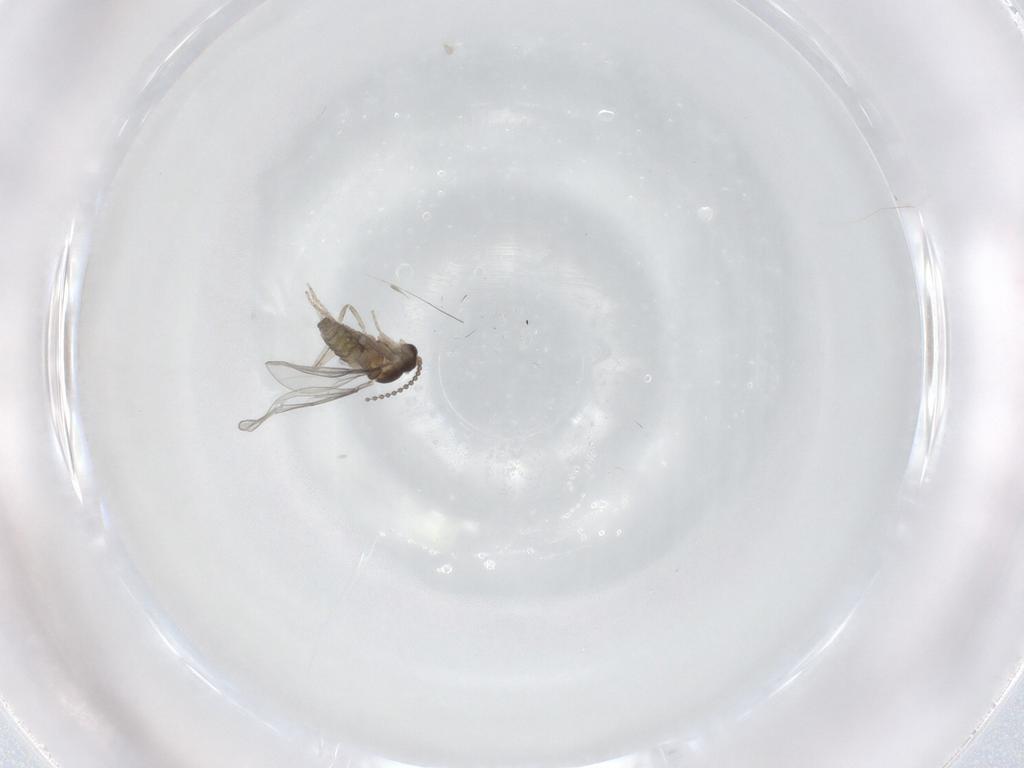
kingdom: Animalia
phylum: Arthropoda
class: Insecta
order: Diptera
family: Cecidomyiidae
